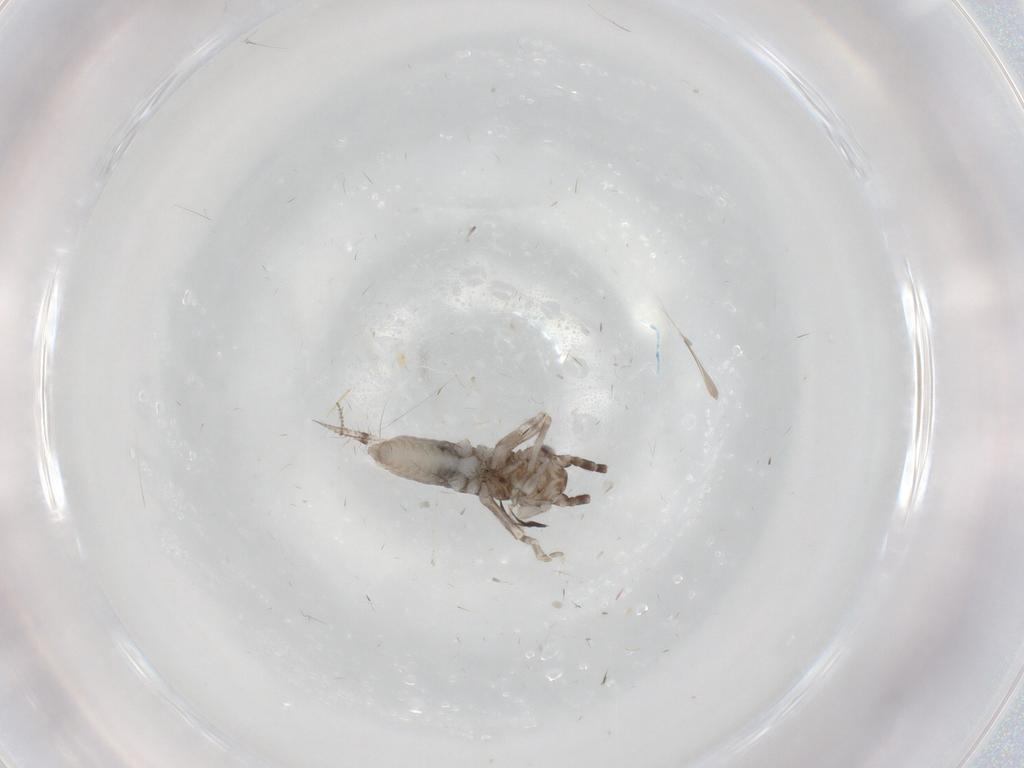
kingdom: Animalia
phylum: Arthropoda
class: Insecta
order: Orthoptera
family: Trigonidiidae
